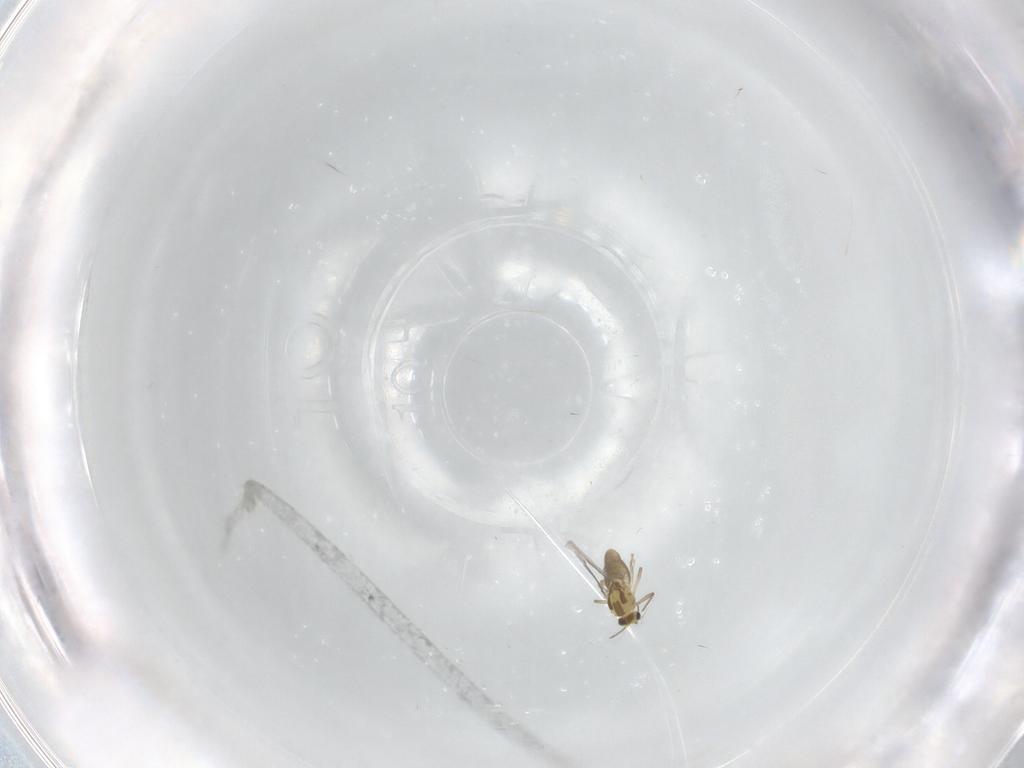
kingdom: Animalia
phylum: Arthropoda
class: Insecta
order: Diptera
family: Chironomidae
